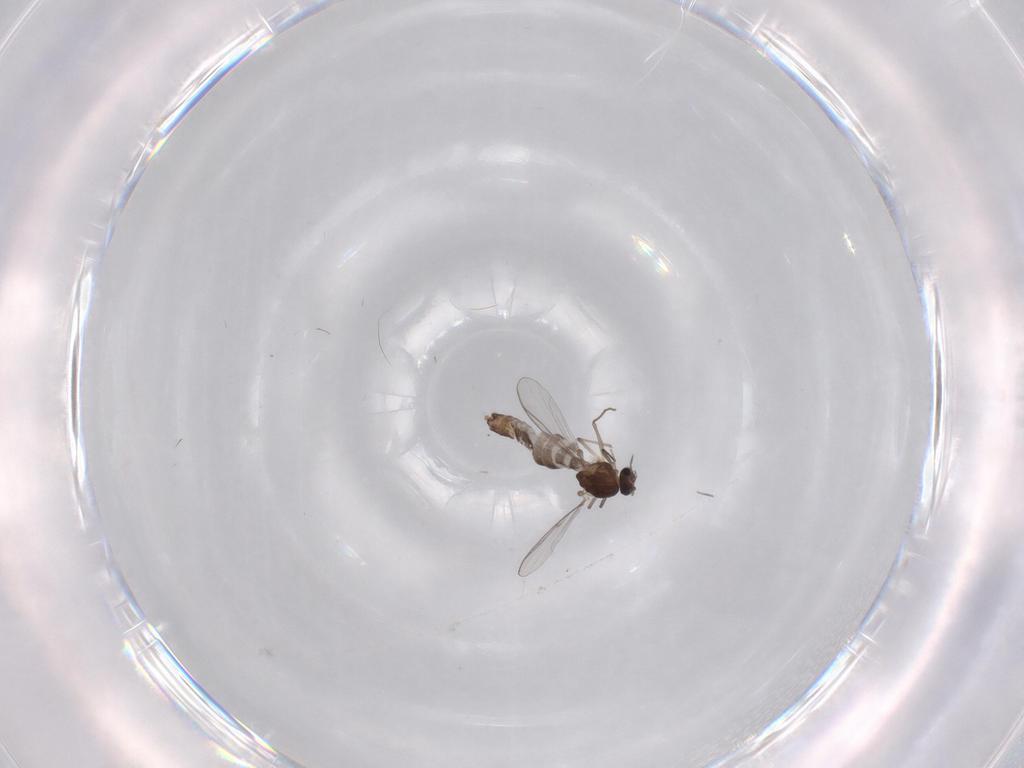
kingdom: Animalia
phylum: Arthropoda
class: Insecta
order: Diptera
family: Chironomidae
